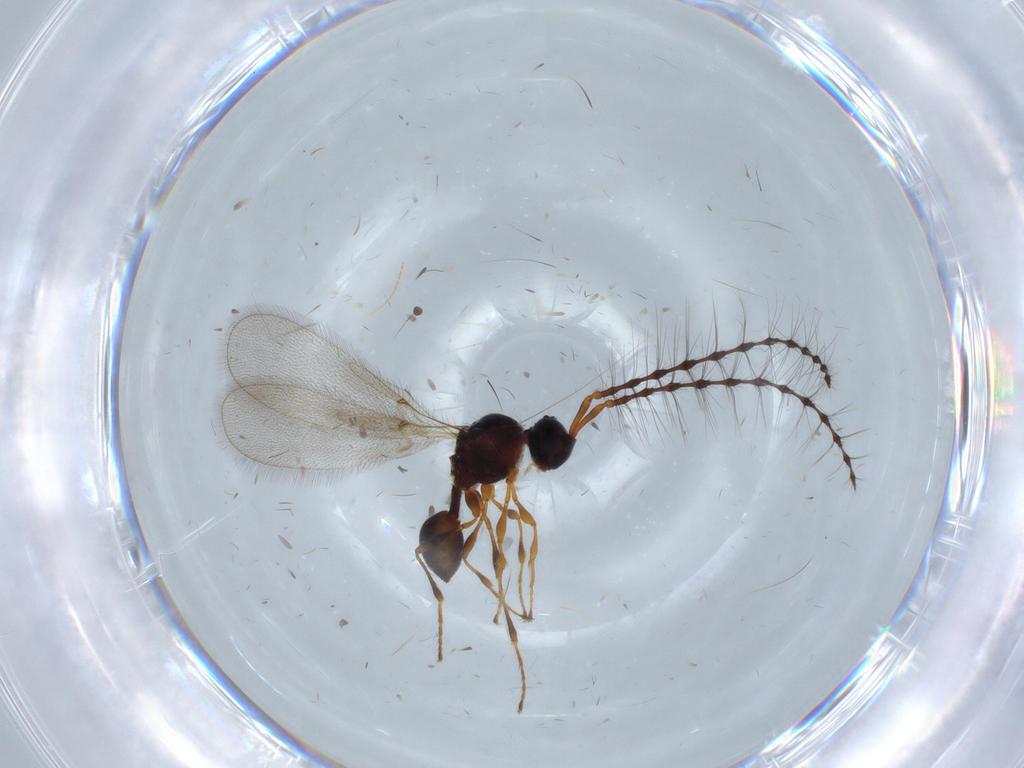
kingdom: Animalia
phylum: Arthropoda
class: Insecta
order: Hymenoptera
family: Diapriidae
